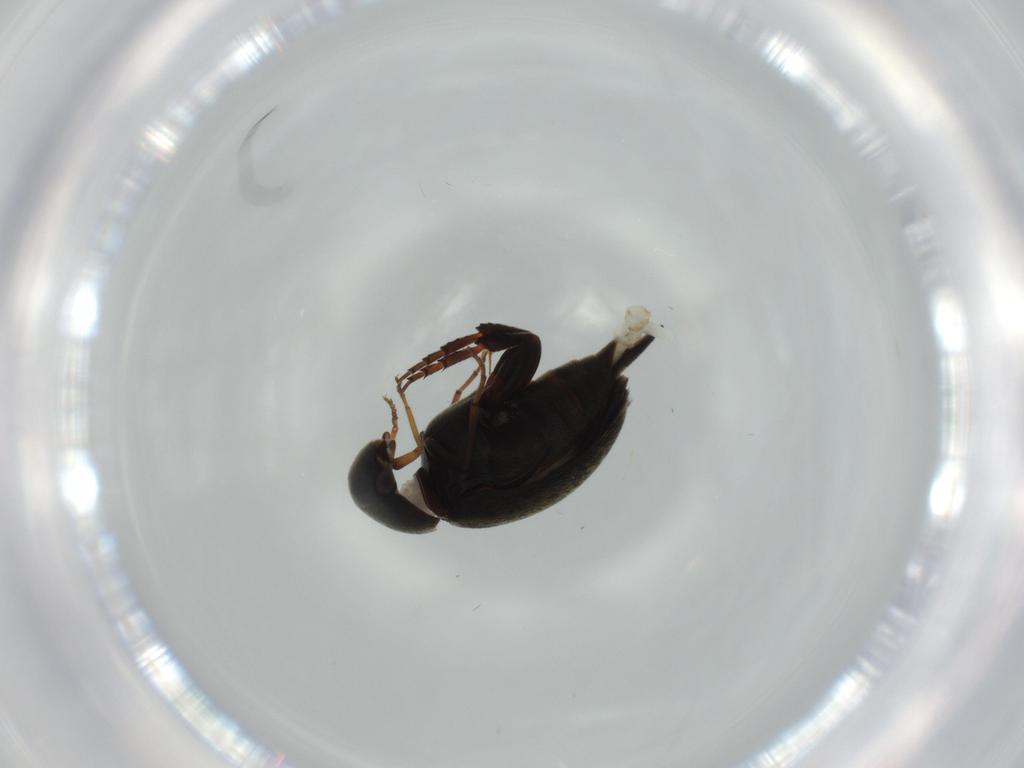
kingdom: Animalia
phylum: Arthropoda
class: Insecta
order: Coleoptera
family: Mordellidae
